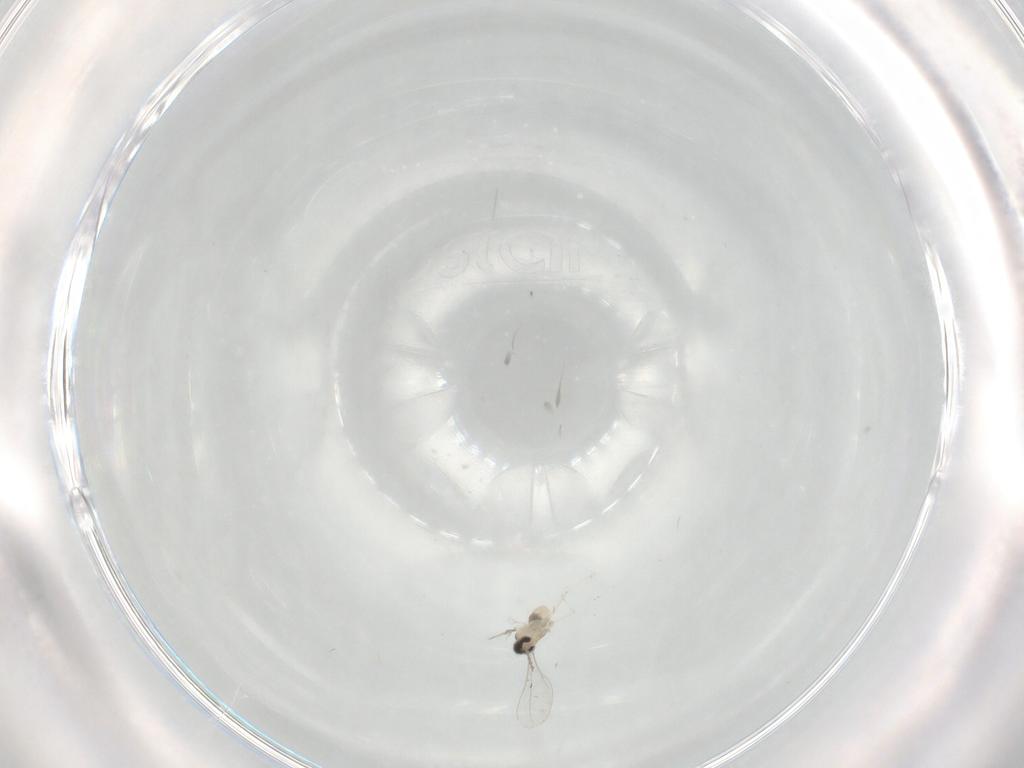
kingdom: Animalia
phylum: Arthropoda
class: Insecta
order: Diptera
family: Cecidomyiidae
